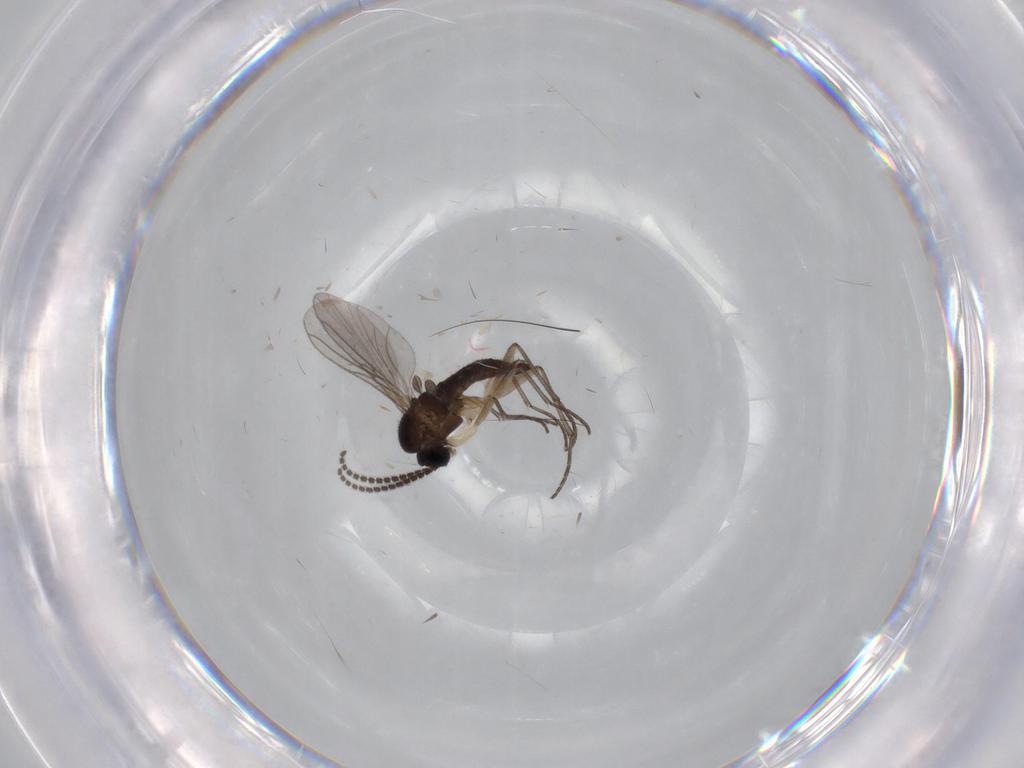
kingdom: Animalia
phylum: Arthropoda
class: Insecta
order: Diptera
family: Sciaridae
